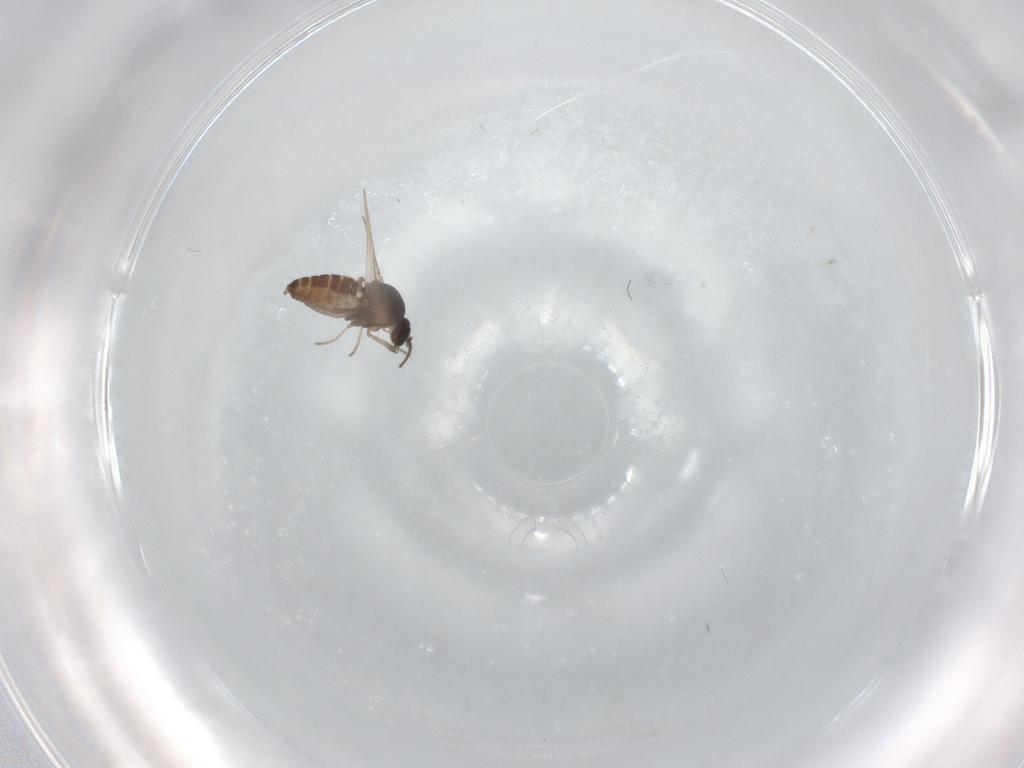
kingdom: Animalia
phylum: Arthropoda
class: Insecta
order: Diptera
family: Ceratopogonidae
